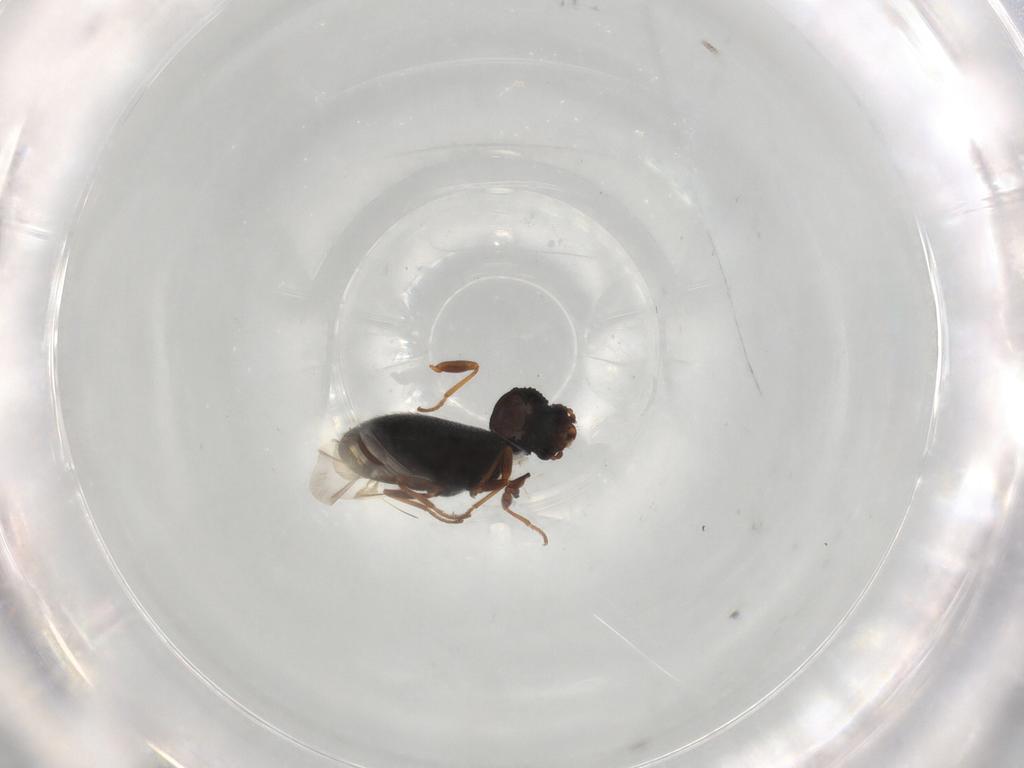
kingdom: Animalia
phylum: Arthropoda
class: Insecta
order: Coleoptera
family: Melyridae
